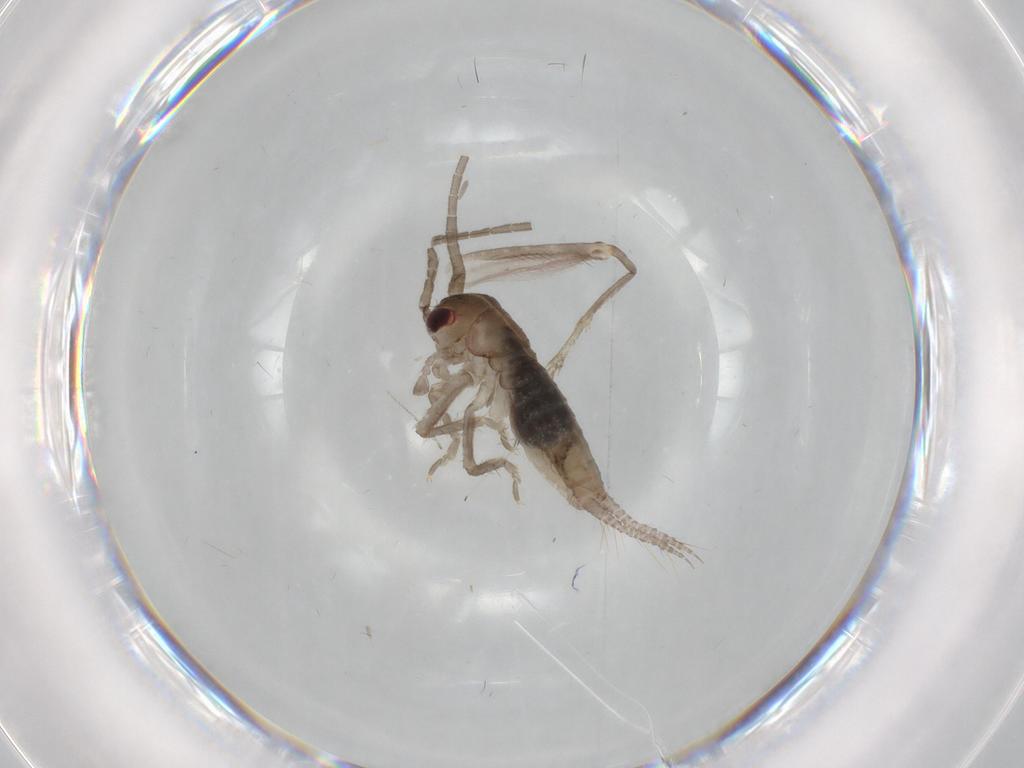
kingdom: Animalia
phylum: Arthropoda
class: Insecta
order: Orthoptera
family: Gryllidae
